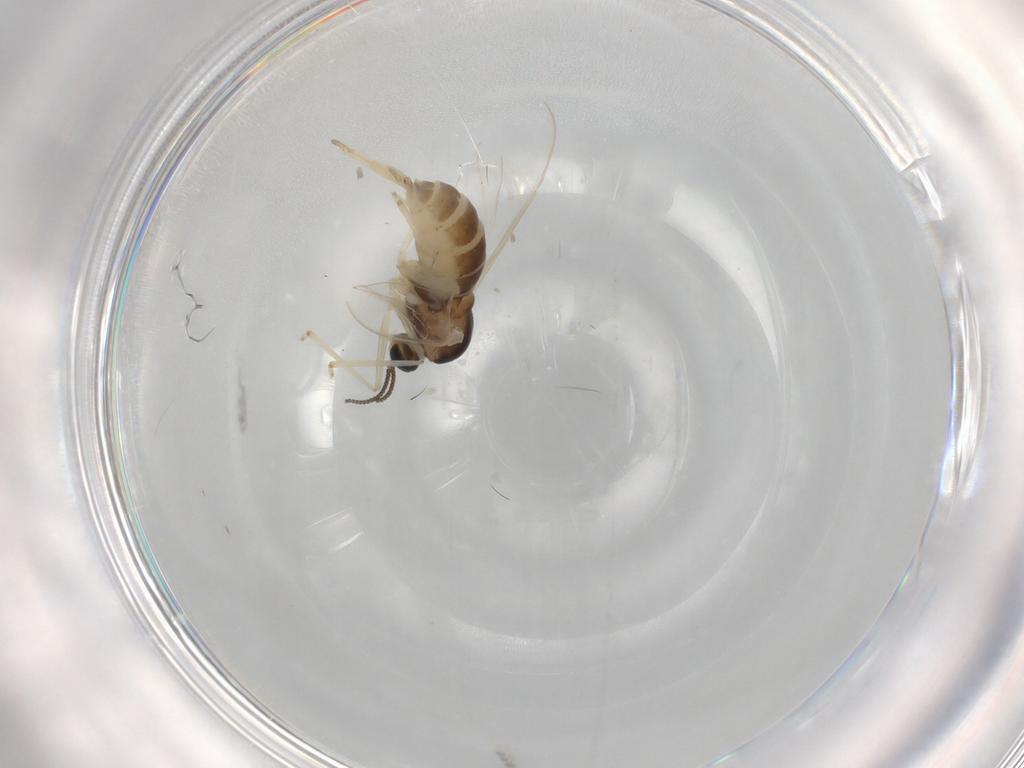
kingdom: Animalia
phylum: Arthropoda
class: Insecta
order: Diptera
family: Cecidomyiidae
